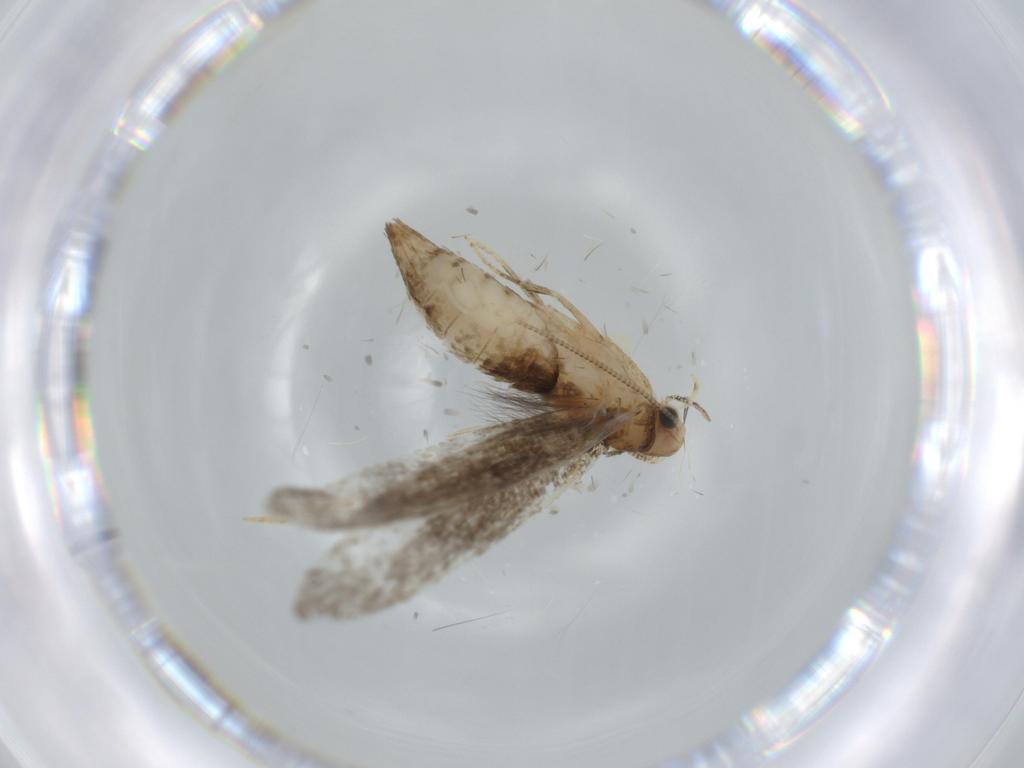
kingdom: Animalia
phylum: Arthropoda
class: Insecta
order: Lepidoptera
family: Tineidae
